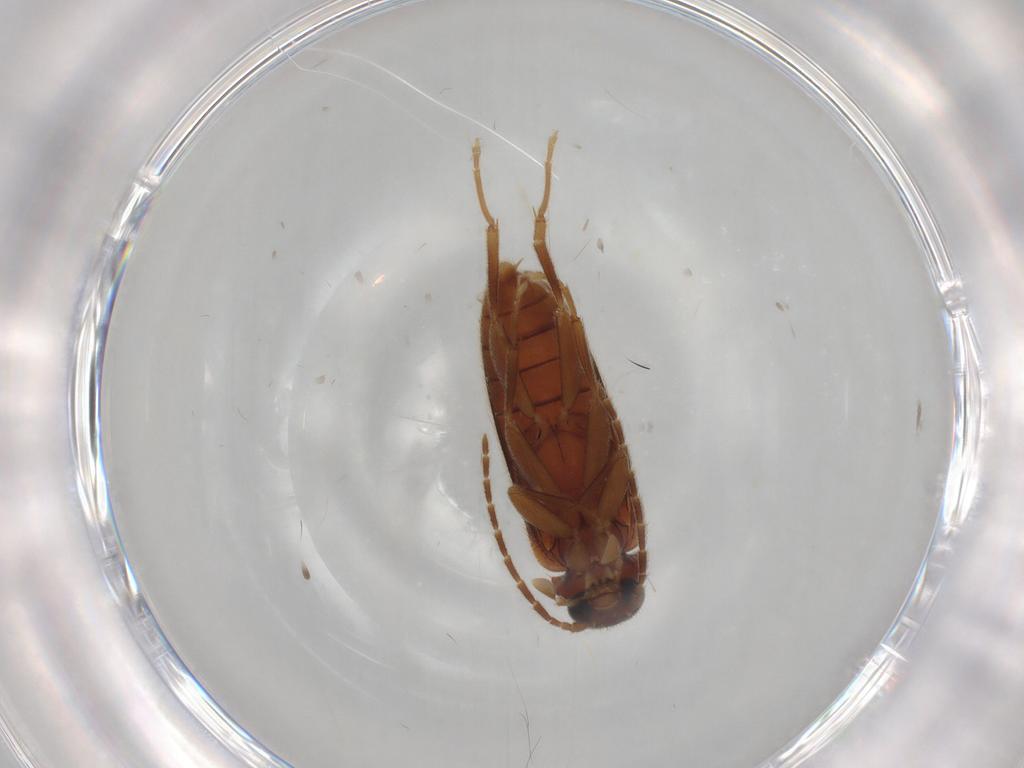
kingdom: Animalia
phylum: Arthropoda
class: Insecta
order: Coleoptera
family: Scraptiidae
